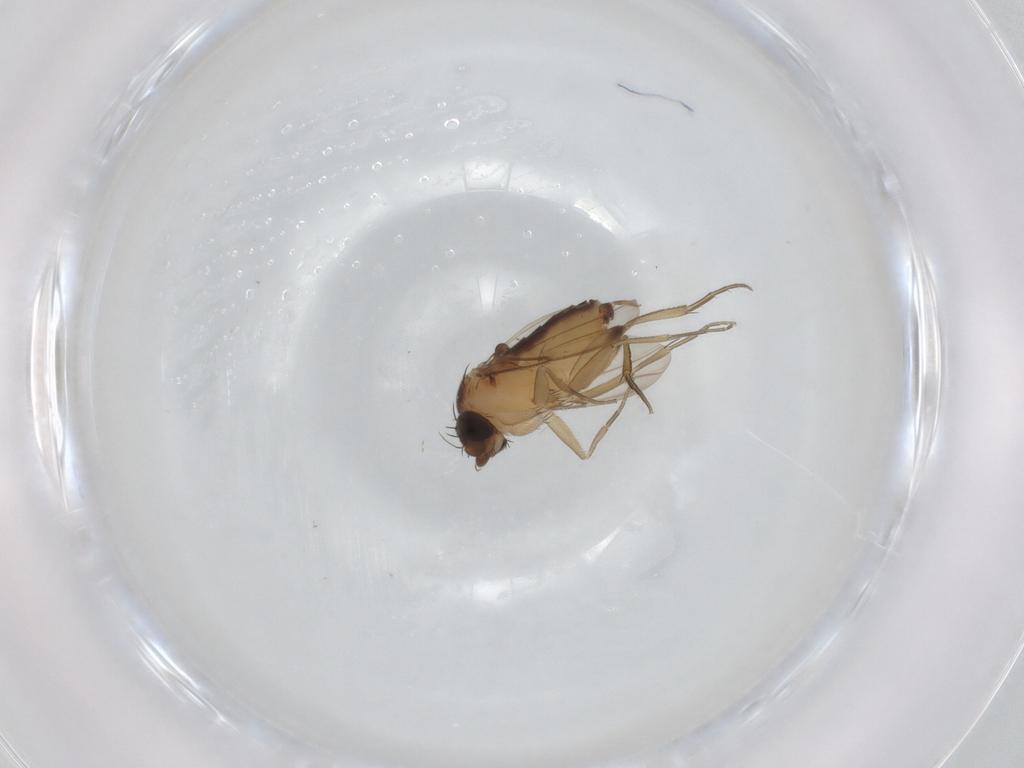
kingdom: Animalia
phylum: Arthropoda
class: Insecta
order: Diptera
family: Phoridae
